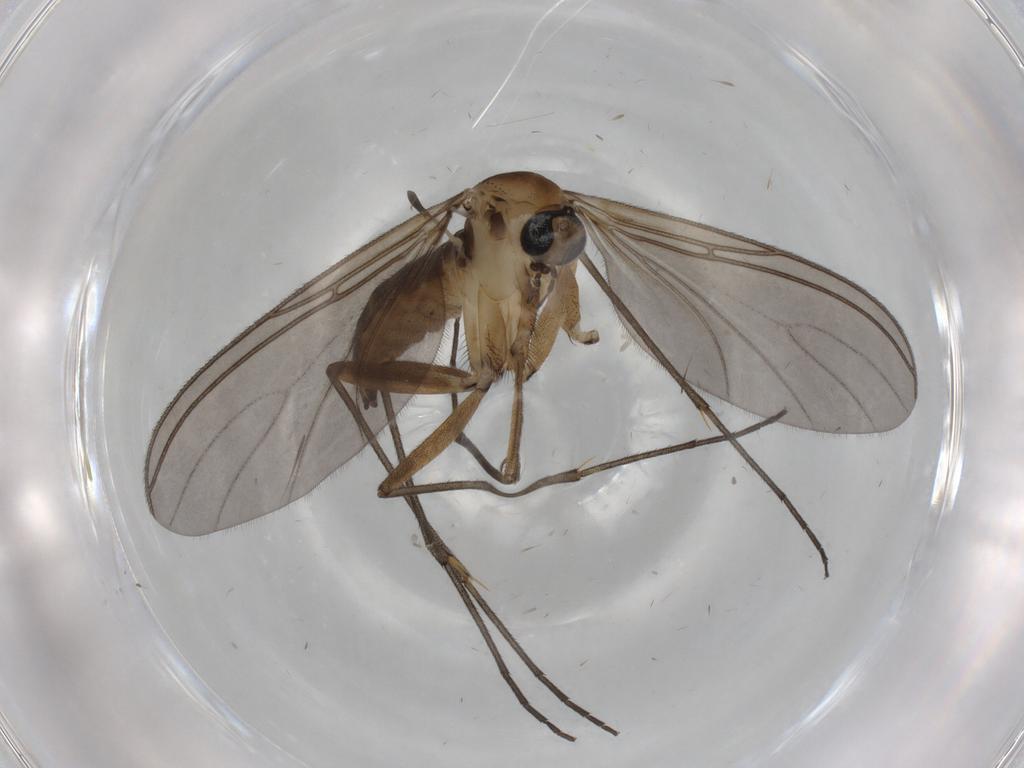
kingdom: Animalia
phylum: Arthropoda
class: Insecta
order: Diptera
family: Sciaridae
